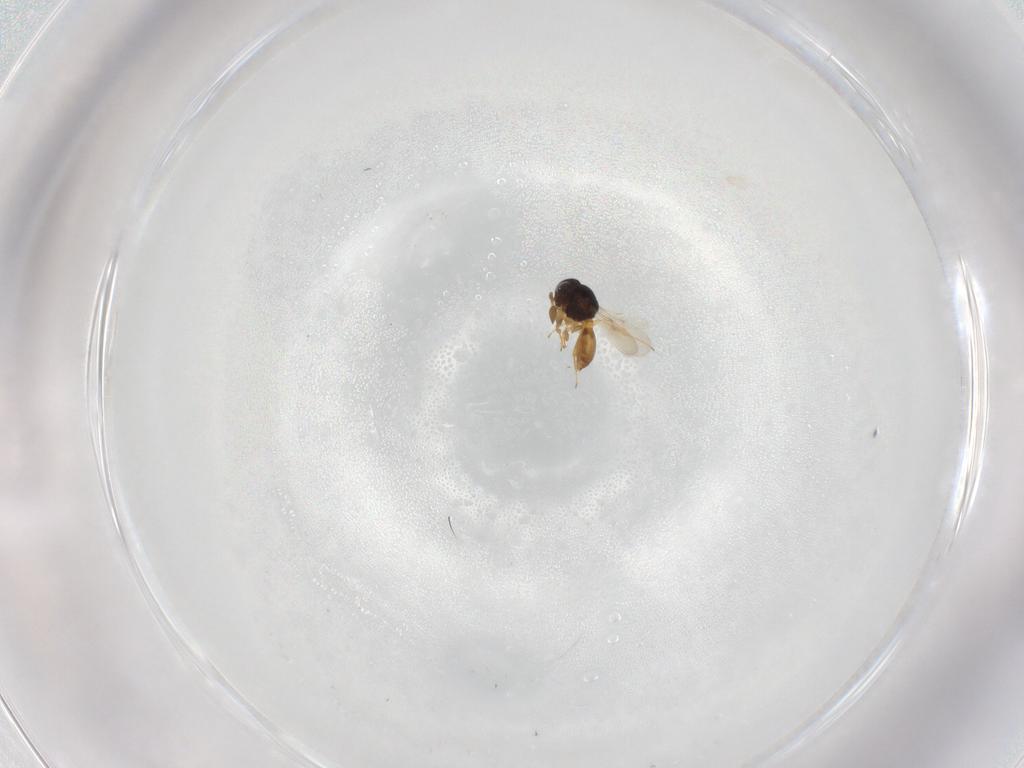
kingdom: Animalia
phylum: Arthropoda
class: Insecta
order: Hymenoptera
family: Scelionidae
